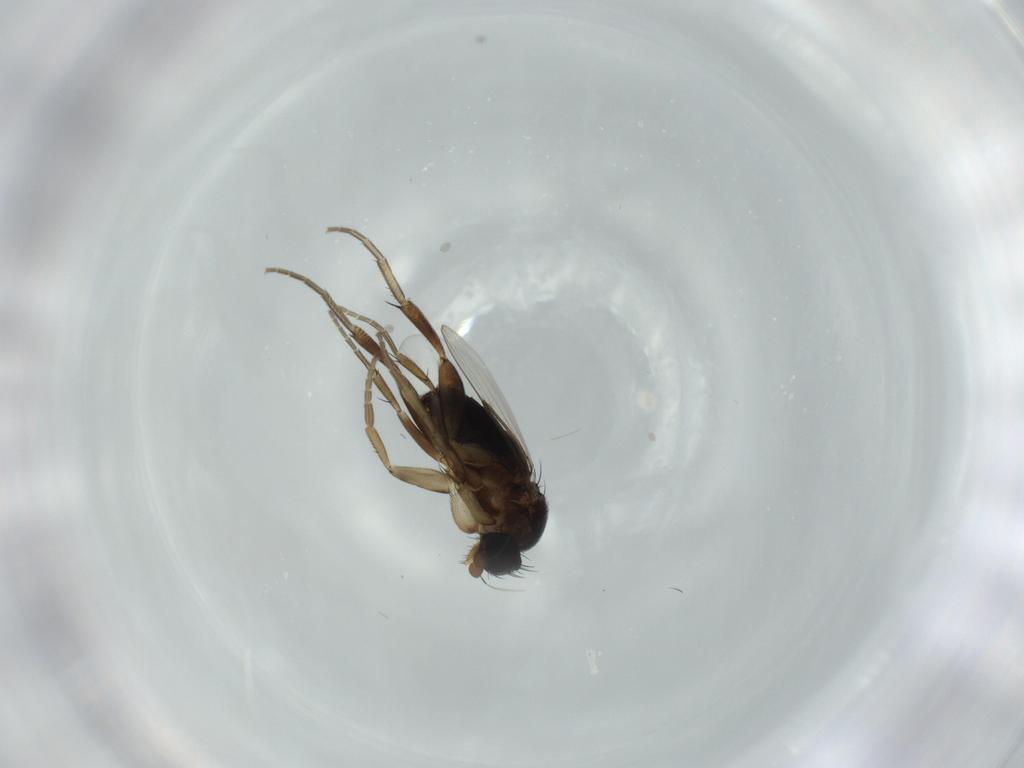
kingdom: Animalia
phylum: Arthropoda
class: Insecta
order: Diptera
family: Phoridae
